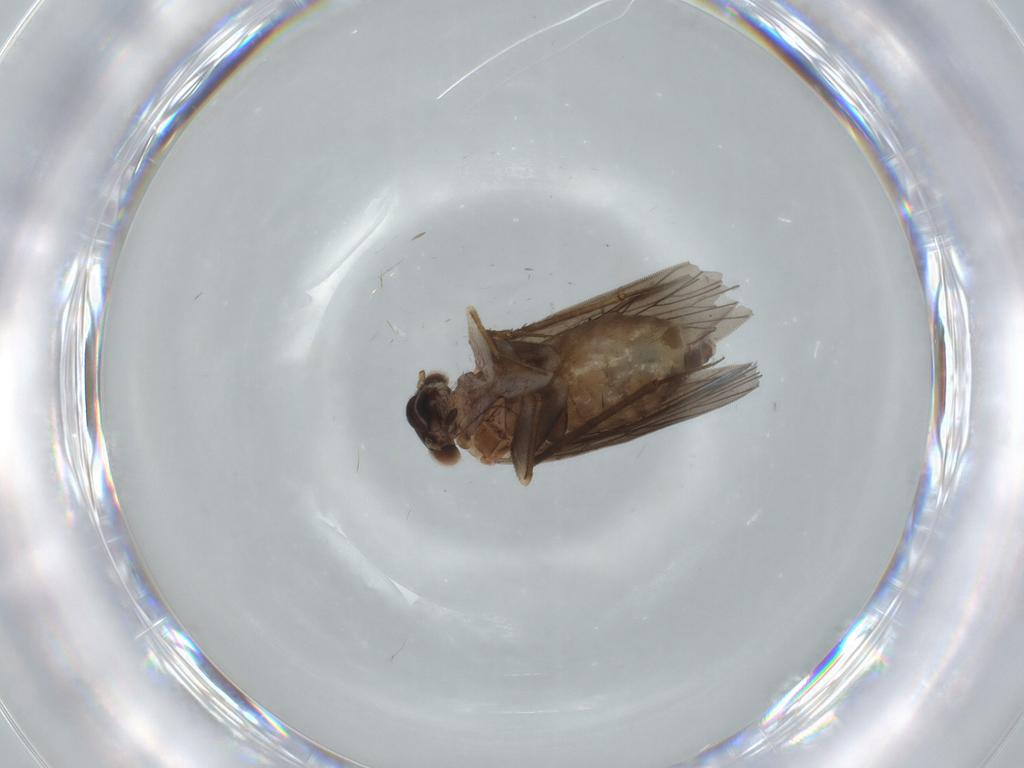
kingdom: Animalia
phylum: Arthropoda
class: Insecta
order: Psocodea
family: Lepidopsocidae
